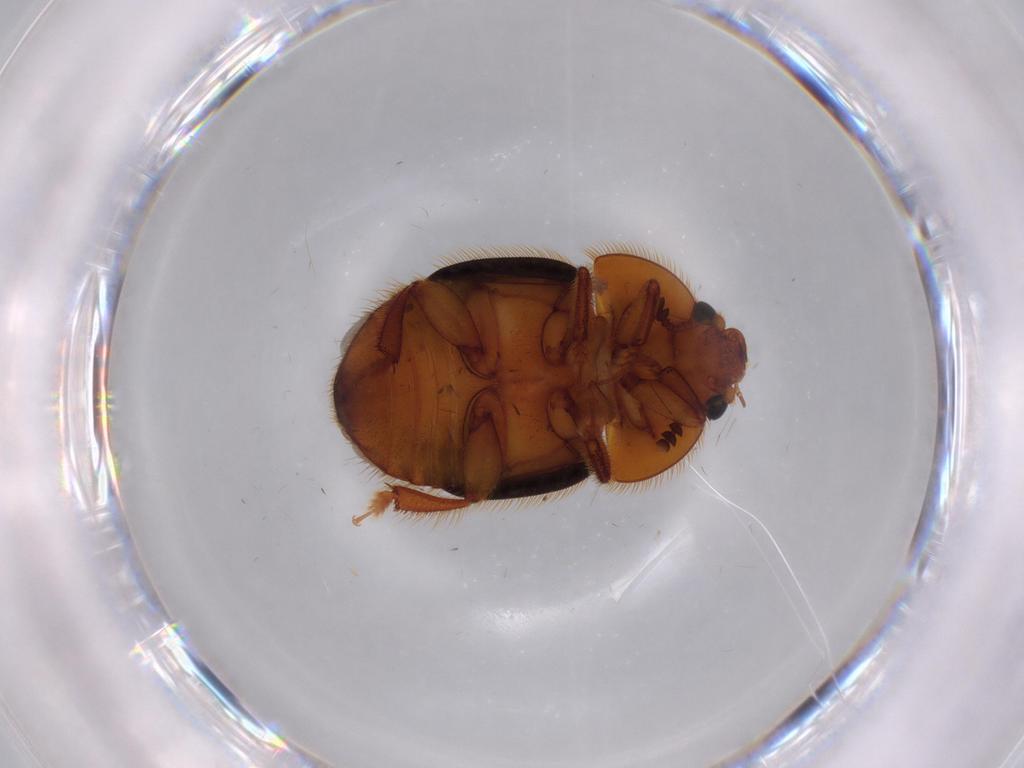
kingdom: Animalia
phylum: Arthropoda
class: Insecta
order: Coleoptera
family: Nitidulidae
